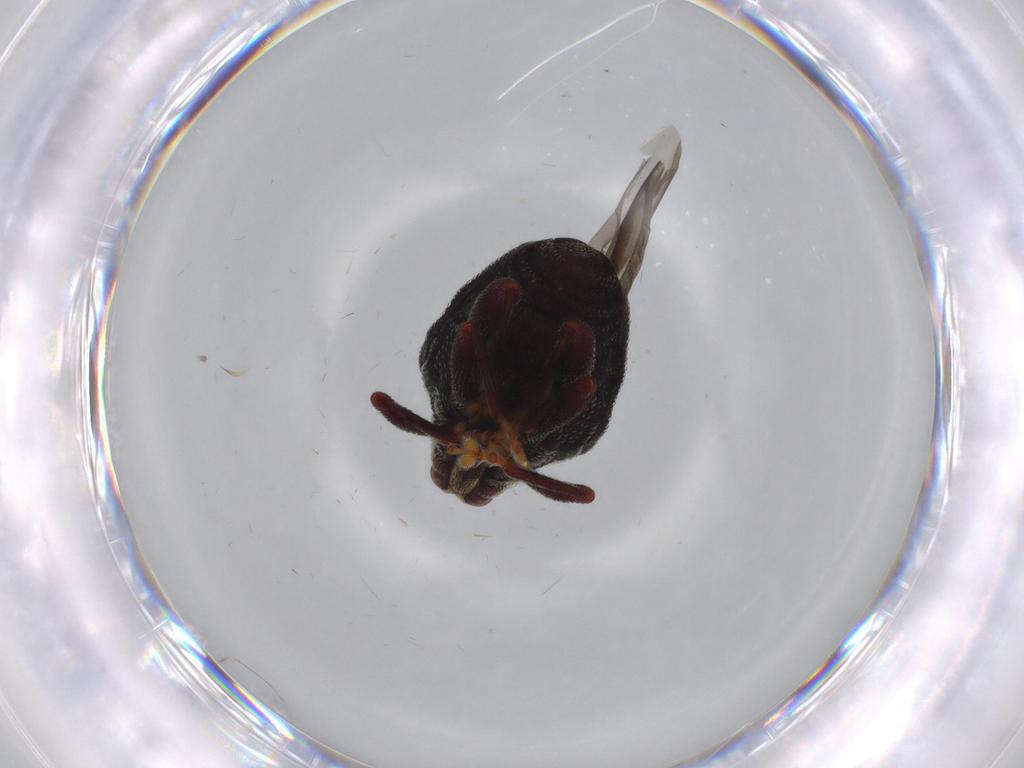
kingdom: Animalia
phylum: Arthropoda
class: Insecta
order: Coleoptera
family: Curculionidae
